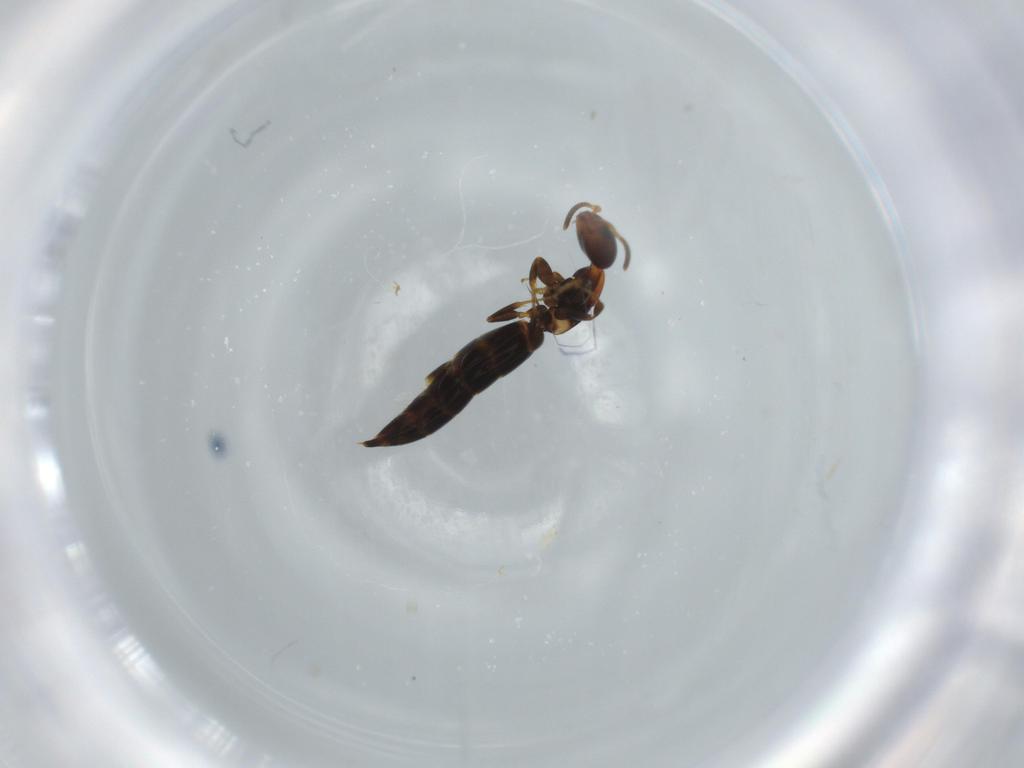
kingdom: Animalia
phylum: Arthropoda
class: Insecta
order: Hymenoptera
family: Bethylidae
